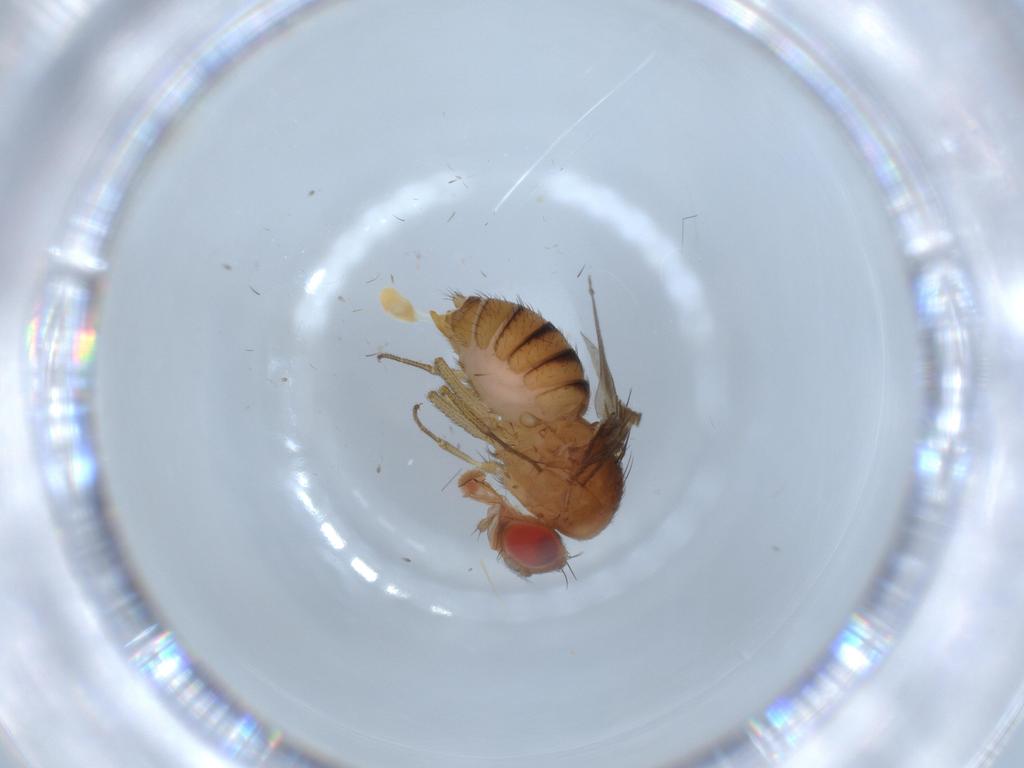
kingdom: Animalia
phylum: Arthropoda
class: Insecta
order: Diptera
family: Drosophilidae
